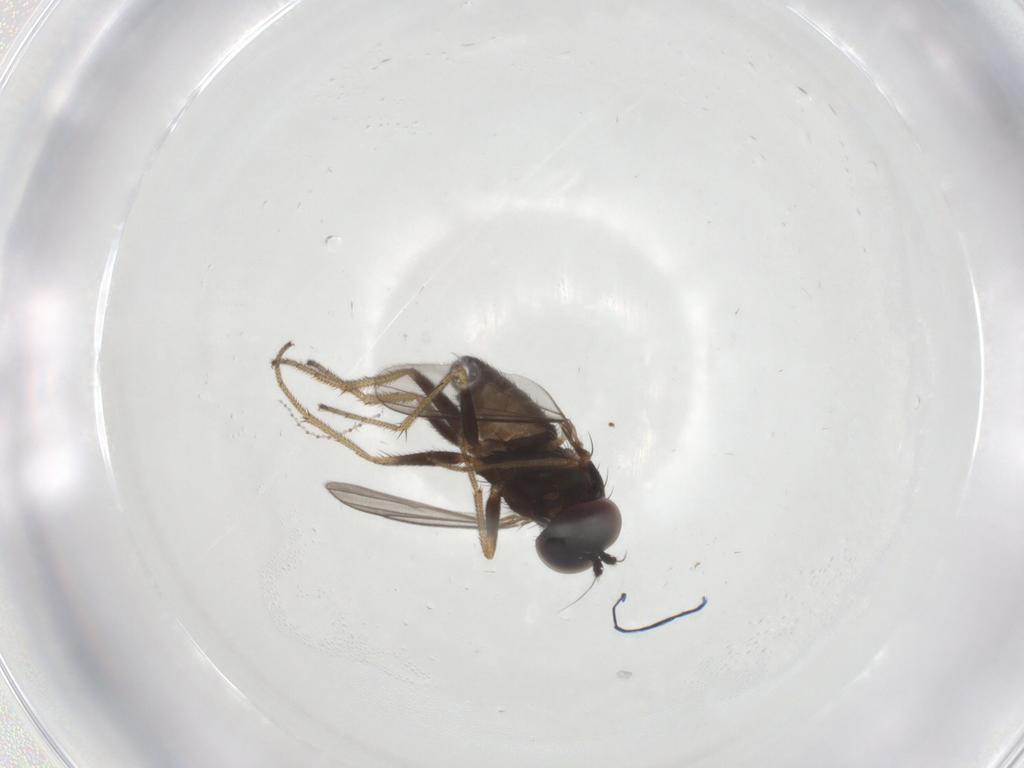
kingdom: Animalia
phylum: Arthropoda
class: Insecta
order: Diptera
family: Dolichopodidae
